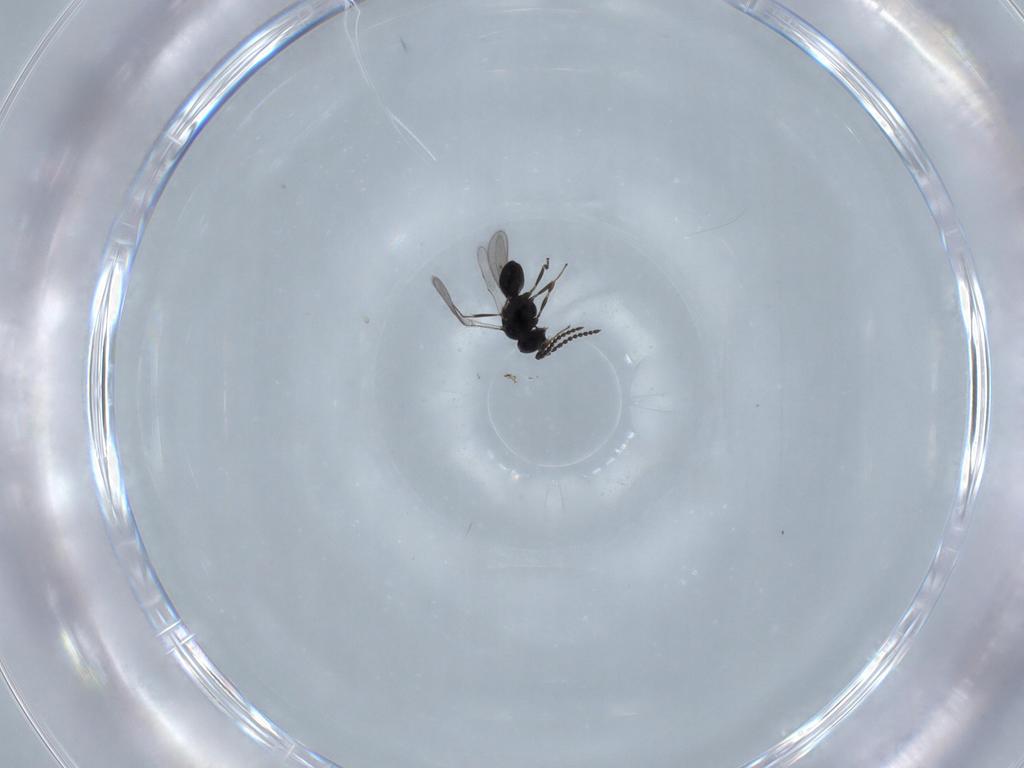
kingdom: Animalia
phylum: Arthropoda
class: Insecta
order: Hymenoptera
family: Scelionidae
